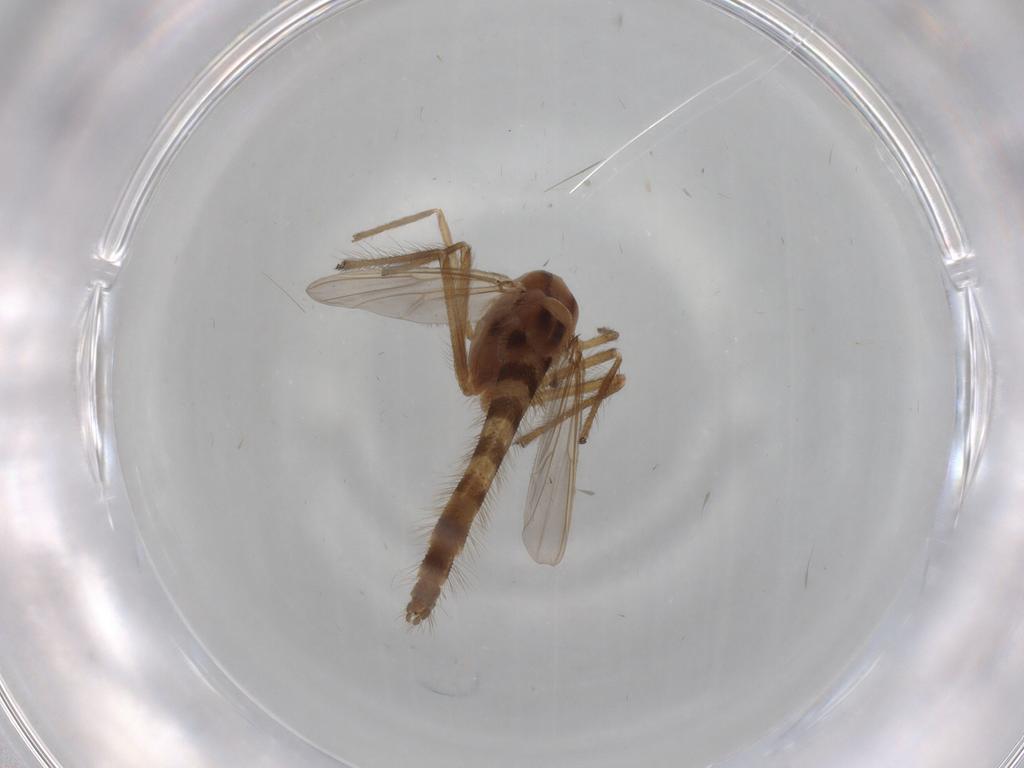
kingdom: Animalia
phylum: Arthropoda
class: Insecta
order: Diptera
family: Chironomidae
